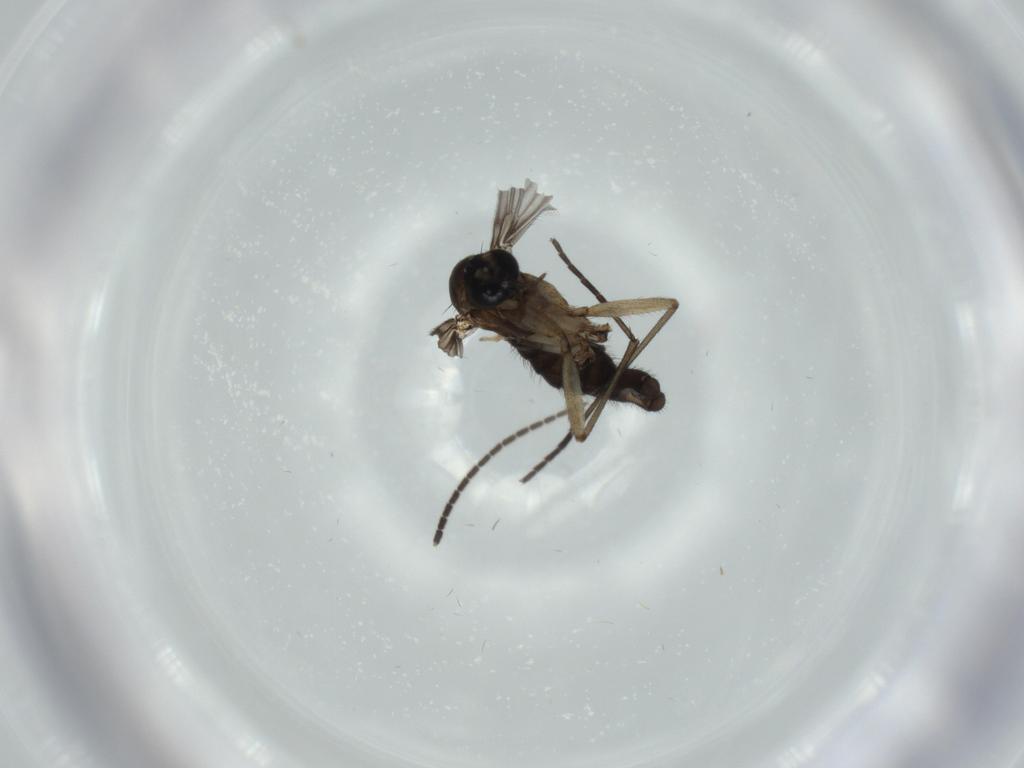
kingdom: Animalia
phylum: Arthropoda
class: Insecta
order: Diptera
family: Sciaridae
